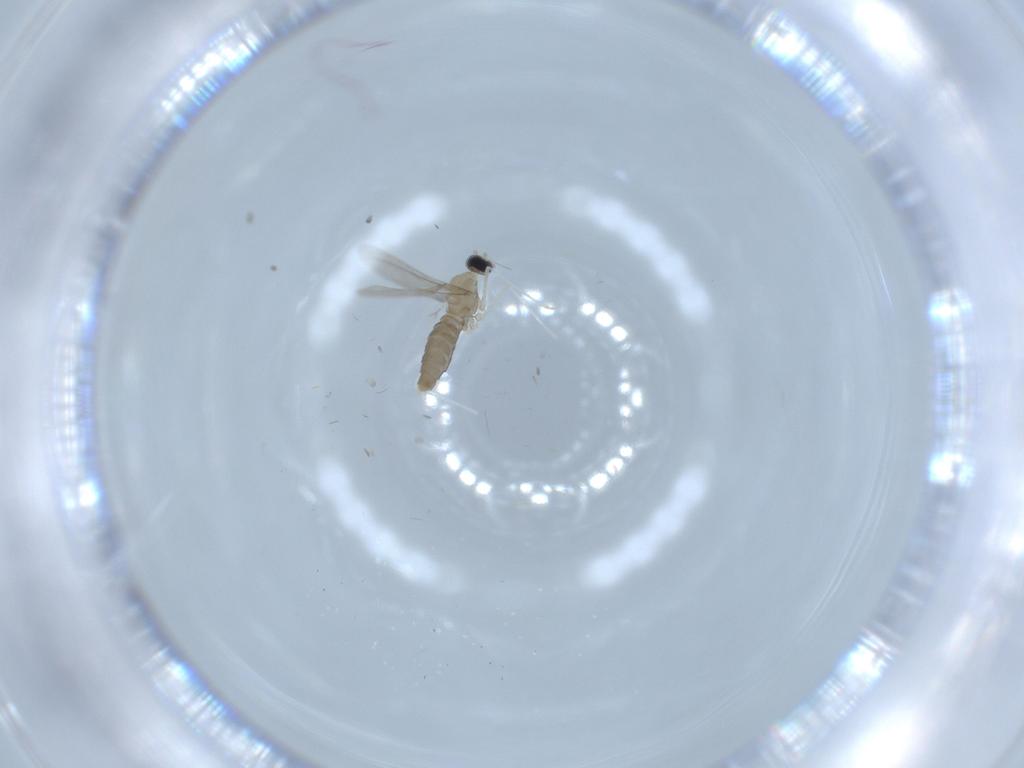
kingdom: Animalia
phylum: Arthropoda
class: Insecta
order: Diptera
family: Cecidomyiidae
